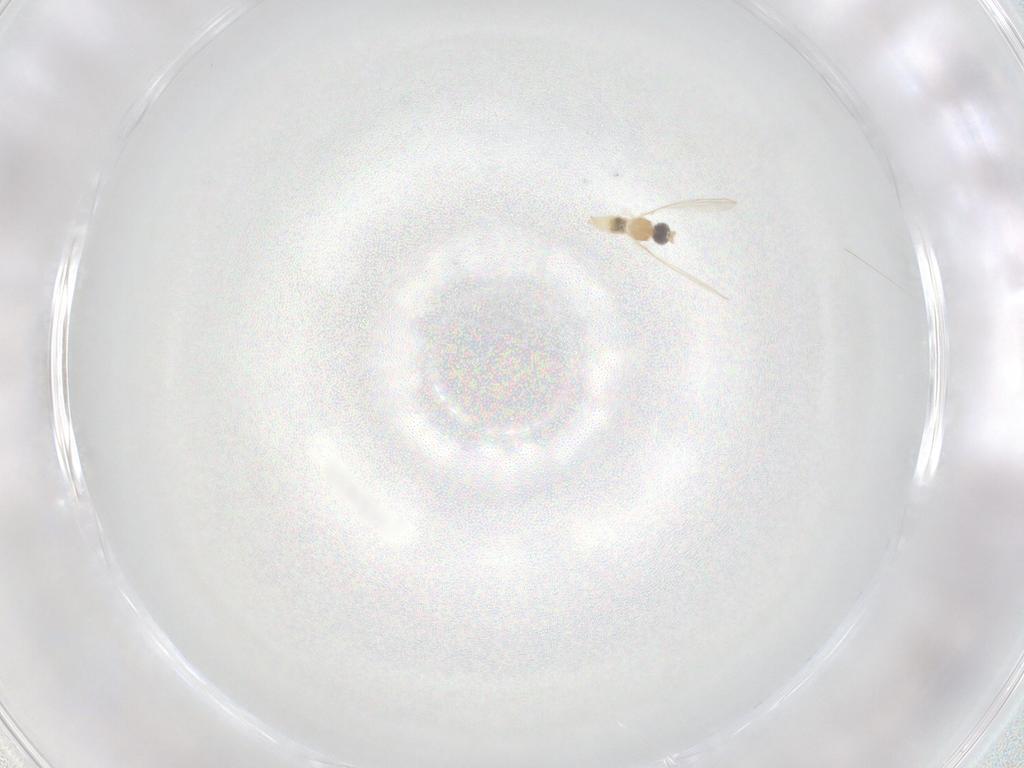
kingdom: Animalia
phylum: Arthropoda
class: Insecta
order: Diptera
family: Cecidomyiidae
